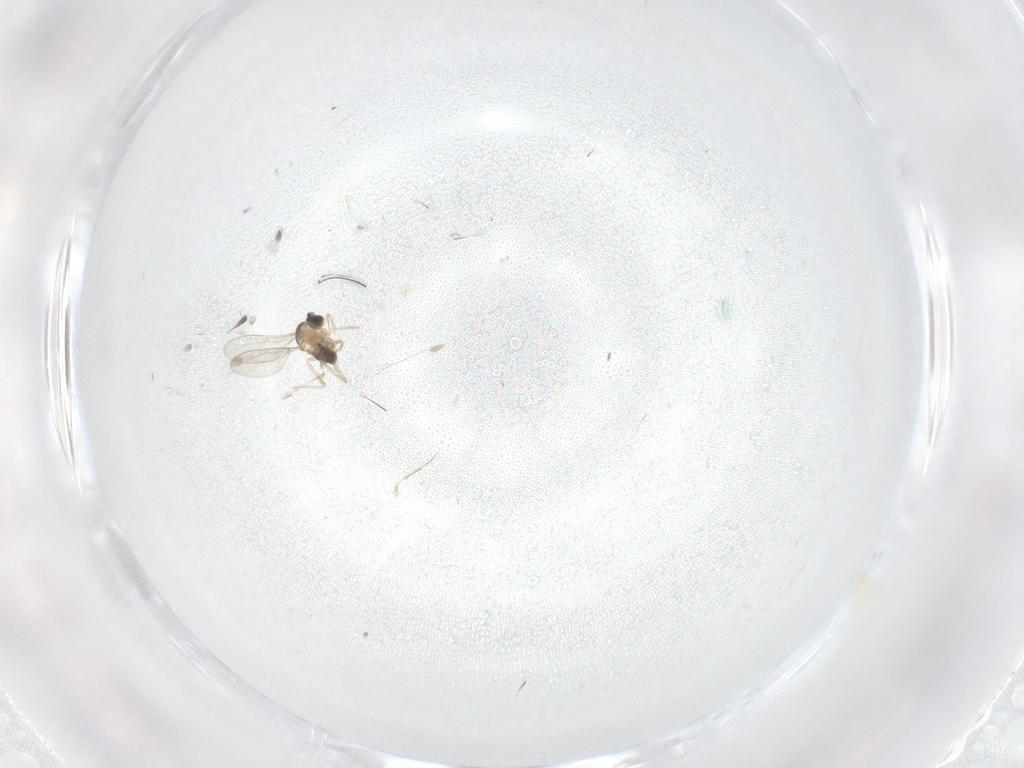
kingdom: Animalia
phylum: Arthropoda
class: Insecta
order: Diptera
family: Cecidomyiidae
